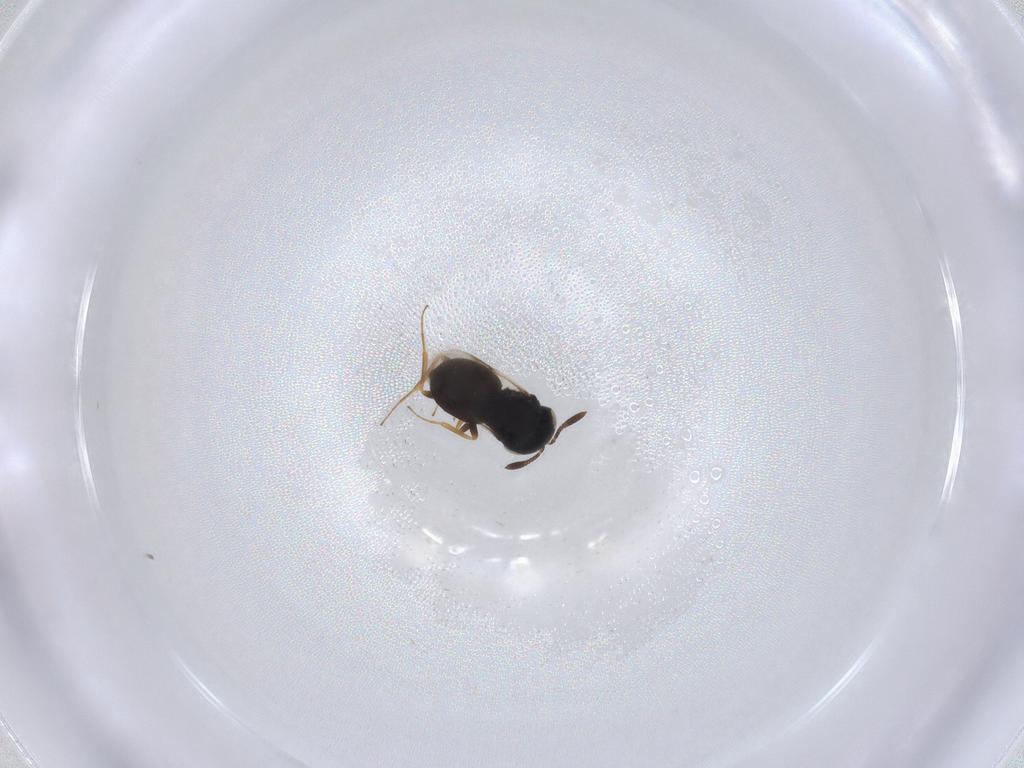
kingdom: Animalia
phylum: Arthropoda
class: Insecta
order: Hymenoptera
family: Scelionidae
